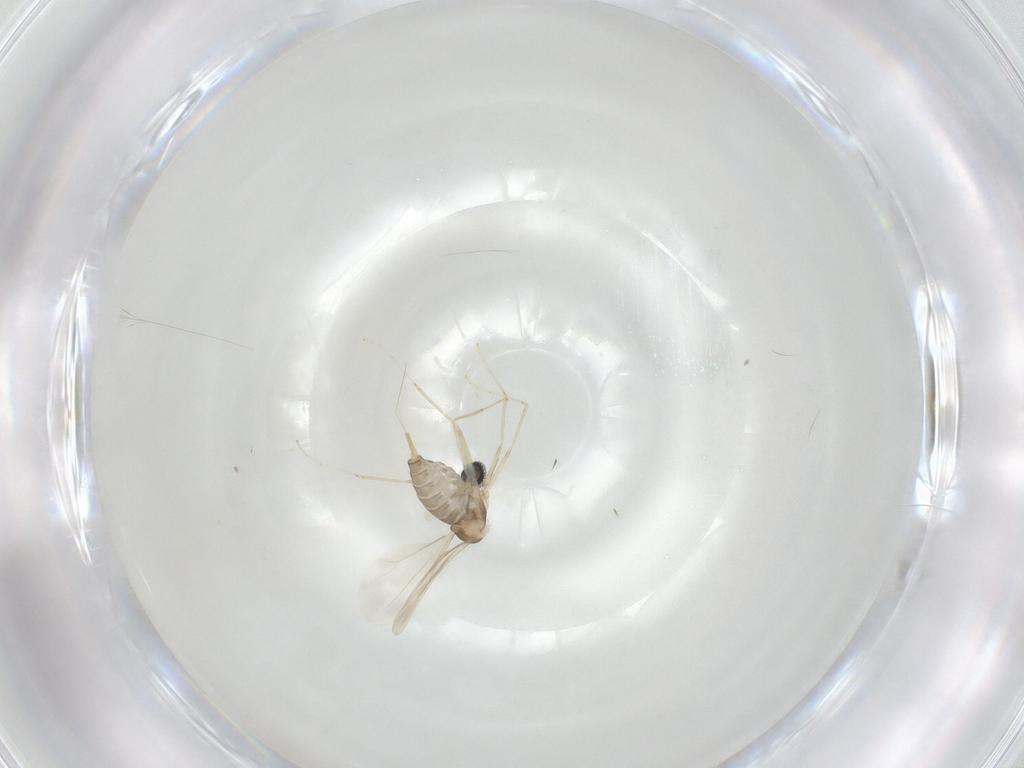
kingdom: Animalia
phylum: Arthropoda
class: Insecta
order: Diptera
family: Cecidomyiidae
